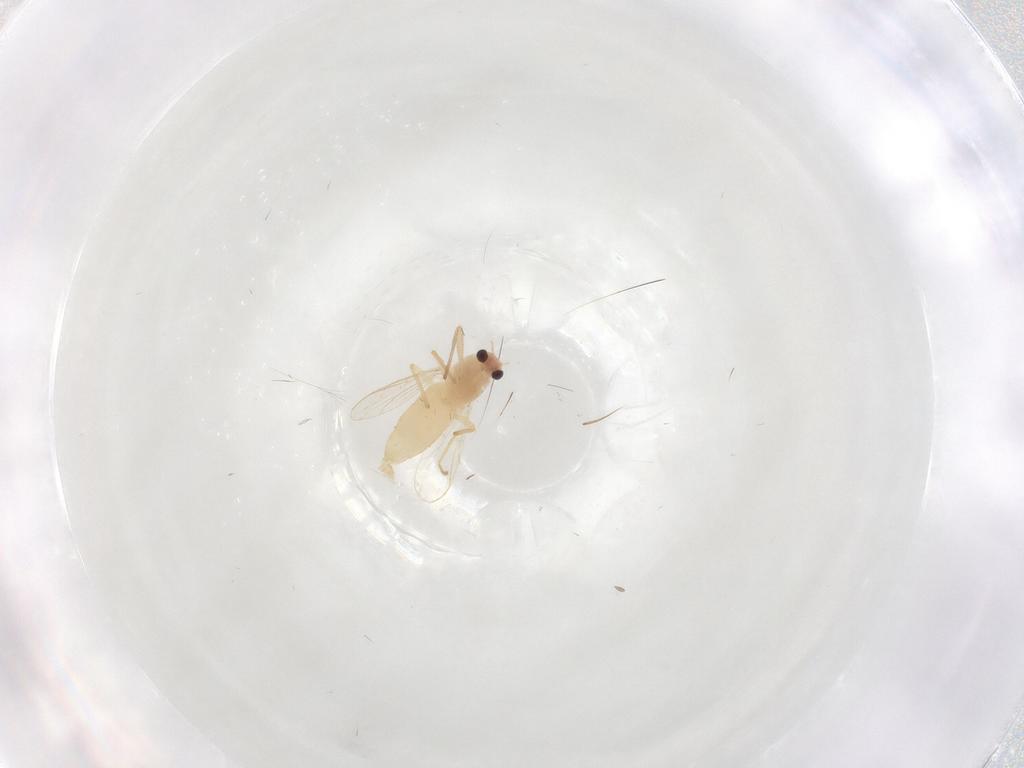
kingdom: Animalia
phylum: Arthropoda
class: Insecta
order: Diptera
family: Chironomidae
